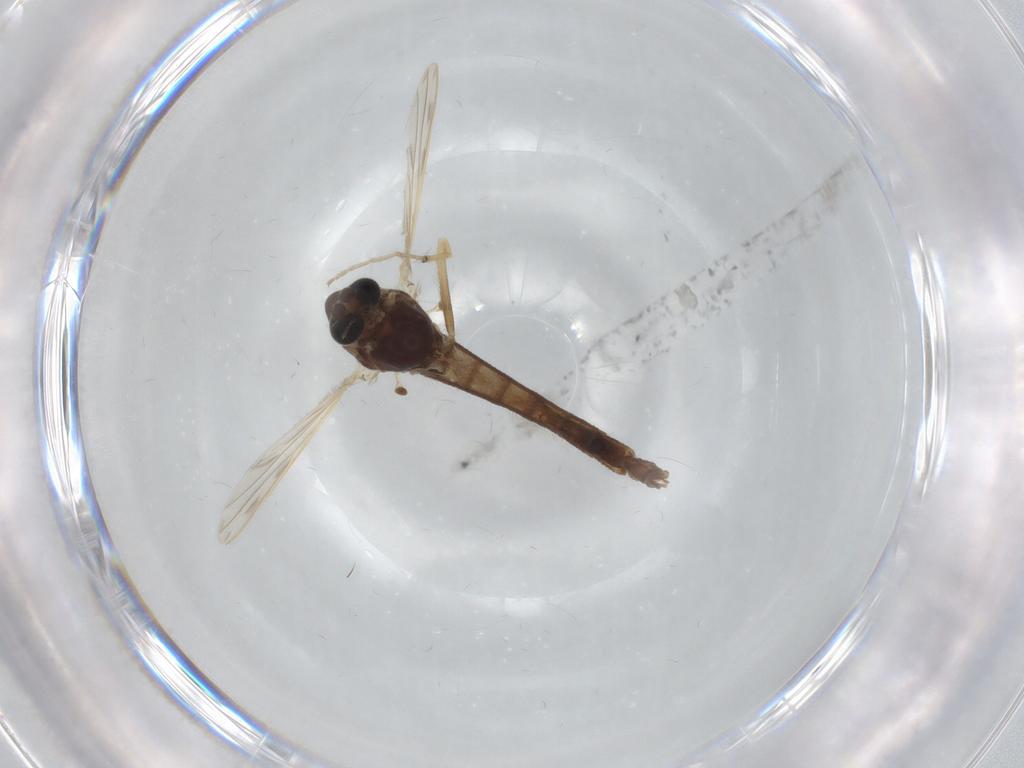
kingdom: Animalia
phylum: Arthropoda
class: Insecta
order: Diptera
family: Chironomidae
